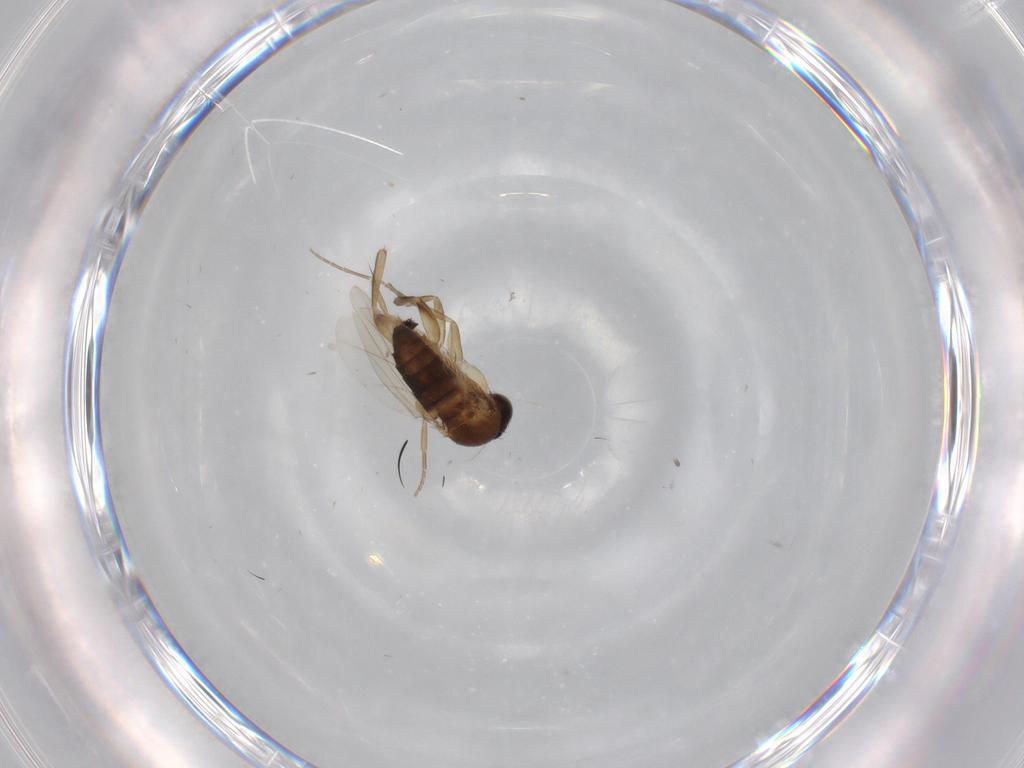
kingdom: Animalia
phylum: Arthropoda
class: Insecta
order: Diptera
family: Phoridae
